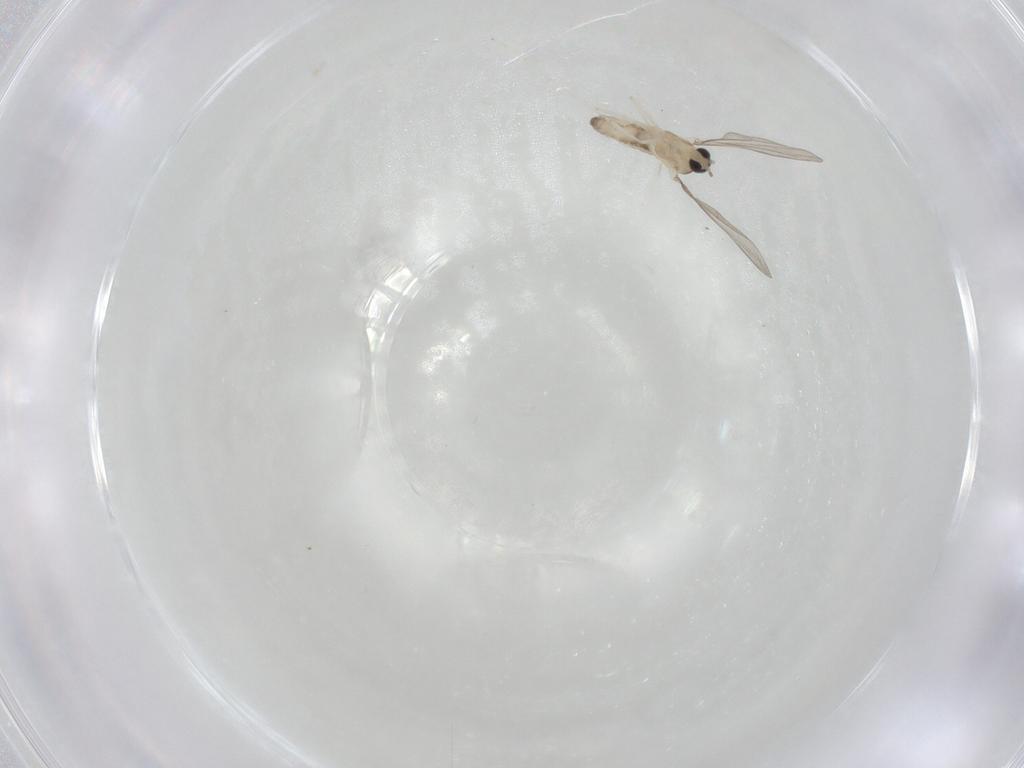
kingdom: Animalia
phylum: Arthropoda
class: Insecta
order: Diptera
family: Cecidomyiidae
